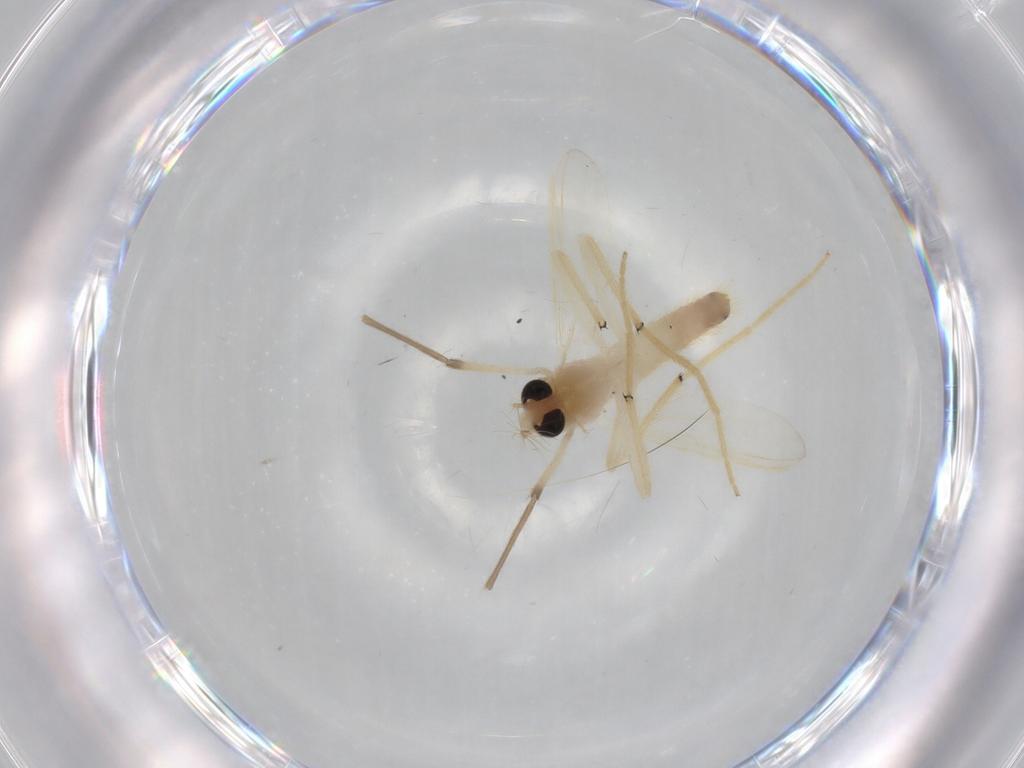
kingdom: Animalia
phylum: Arthropoda
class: Insecta
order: Diptera
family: Chironomidae
